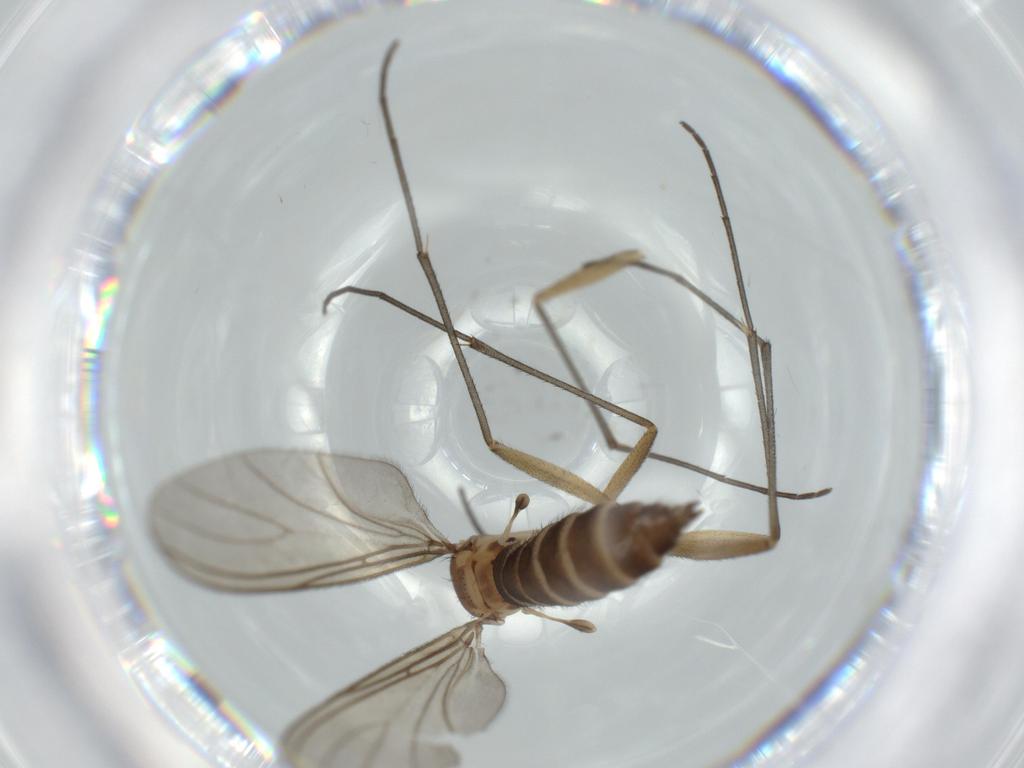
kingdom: Animalia
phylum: Arthropoda
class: Insecta
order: Diptera
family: Sciaridae
